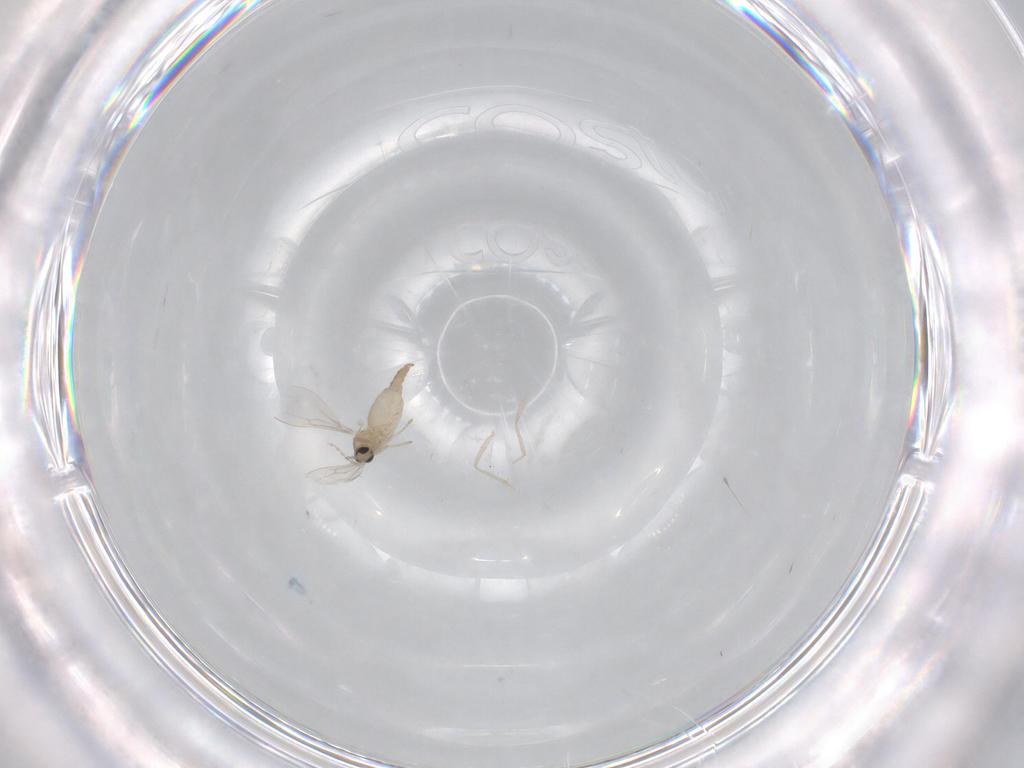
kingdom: Animalia
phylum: Arthropoda
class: Insecta
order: Diptera
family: Cecidomyiidae
